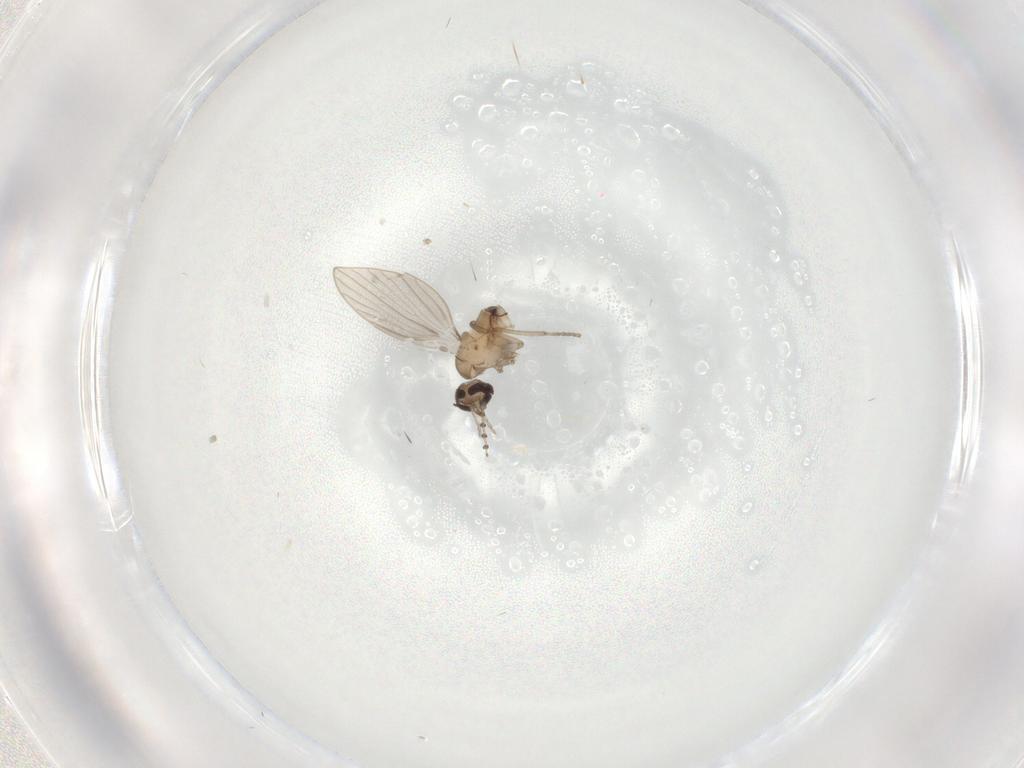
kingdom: Animalia
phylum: Arthropoda
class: Insecta
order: Diptera
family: Psychodidae
